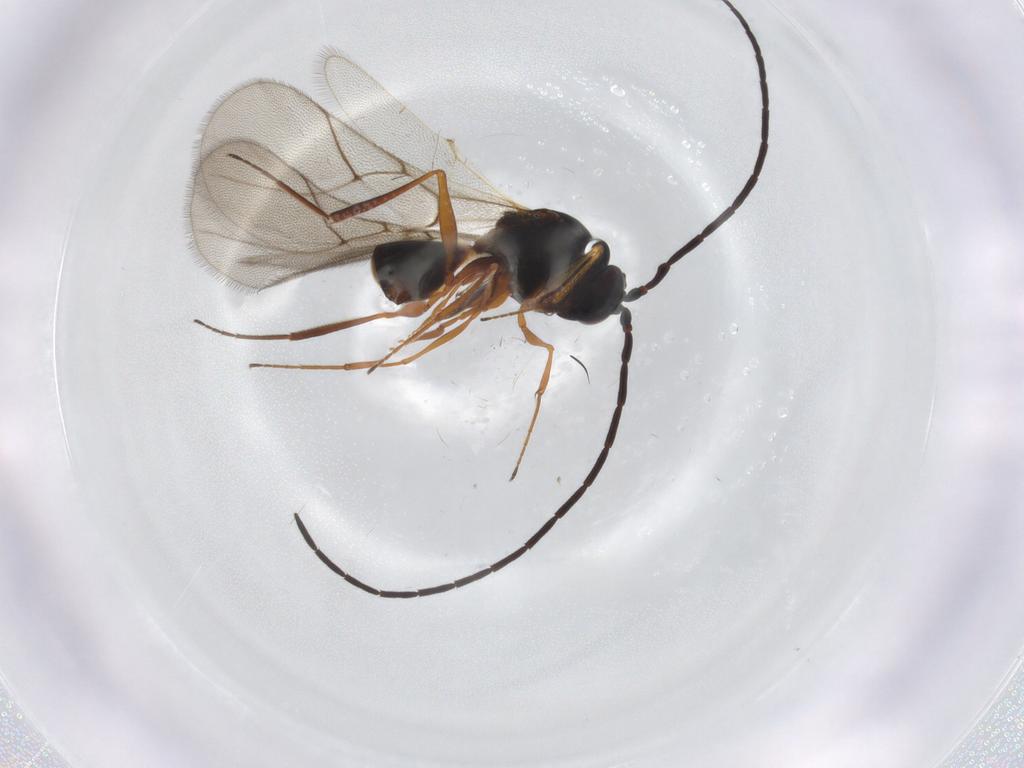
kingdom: Animalia
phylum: Arthropoda
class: Insecta
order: Hymenoptera
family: Figitidae
